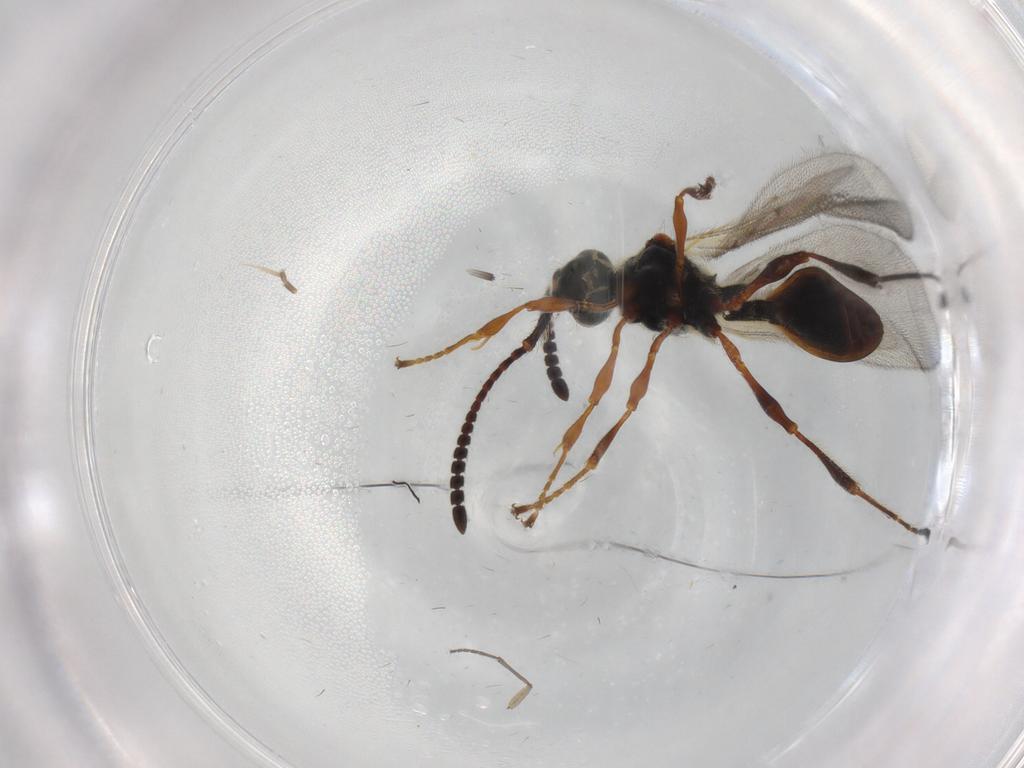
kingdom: Animalia
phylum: Arthropoda
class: Insecta
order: Hymenoptera
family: Diapriidae
